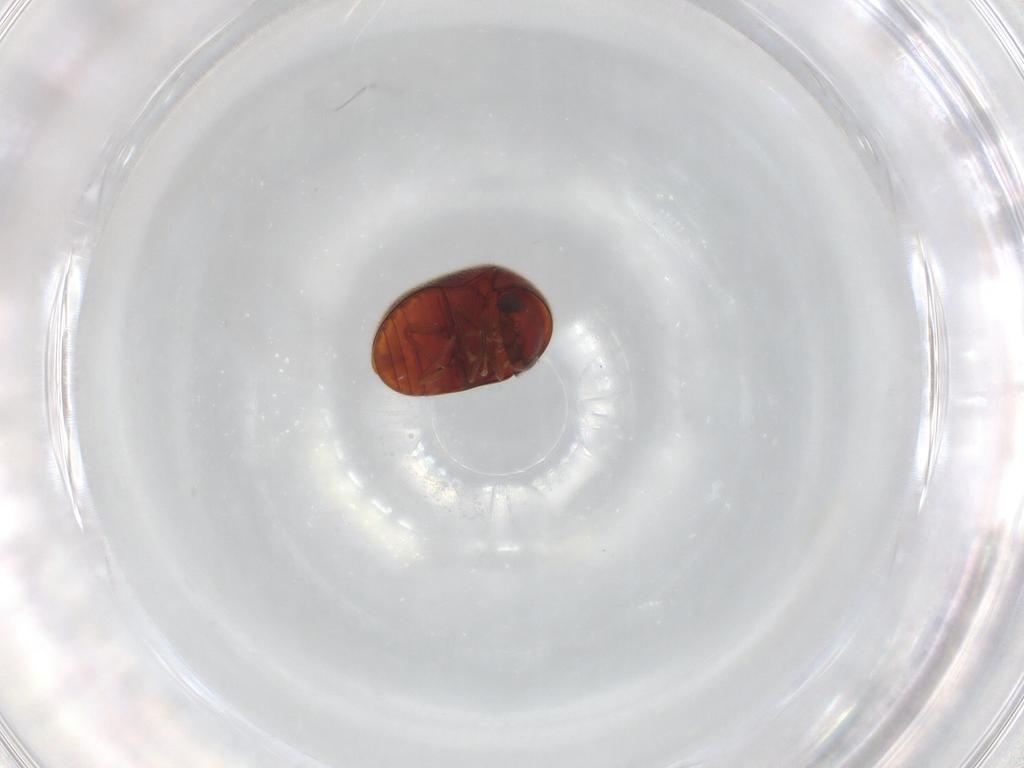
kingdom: Animalia
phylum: Arthropoda
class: Insecta
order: Coleoptera
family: Ptinidae
